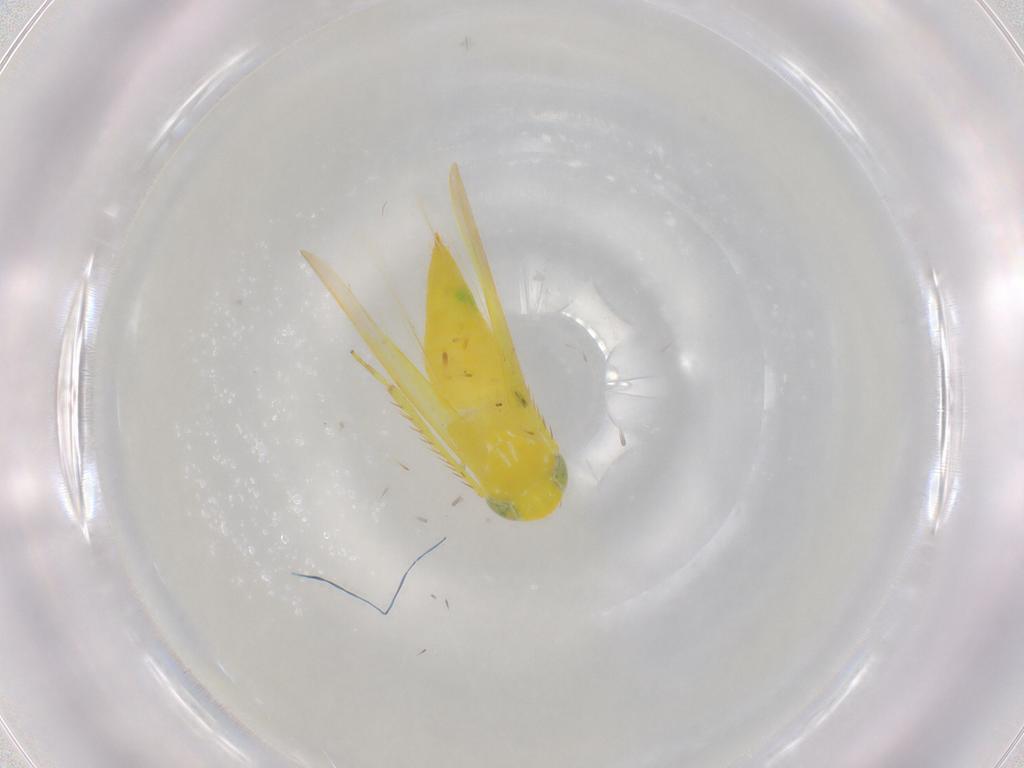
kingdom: Animalia
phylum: Arthropoda
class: Insecta
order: Hemiptera
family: Cicadellidae
